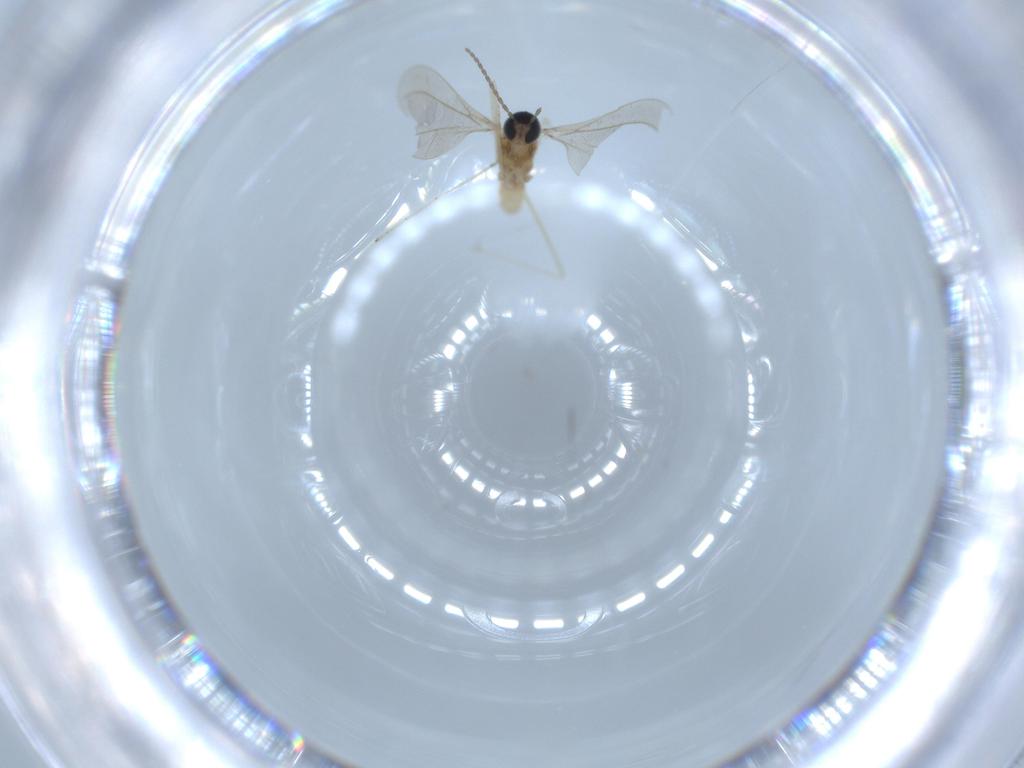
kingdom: Animalia
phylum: Arthropoda
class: Insecta
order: Diptera
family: Cecidomyiidae
